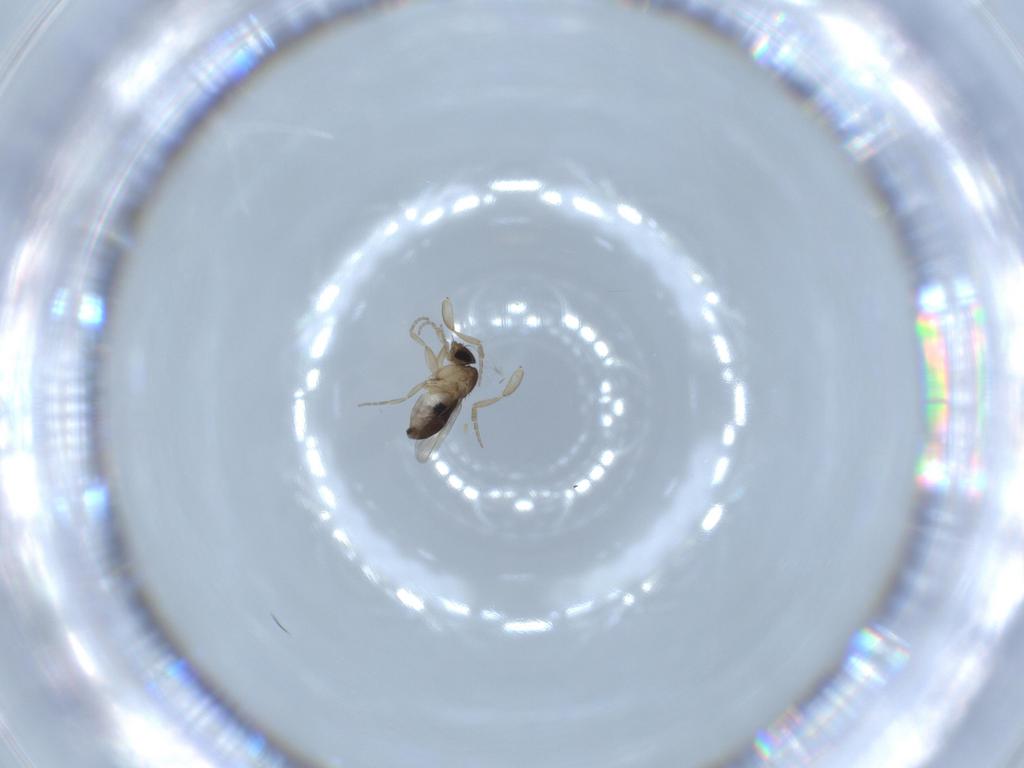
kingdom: Animalia
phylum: Arthropoda
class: Insecta
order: Diptera
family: Phoridae
